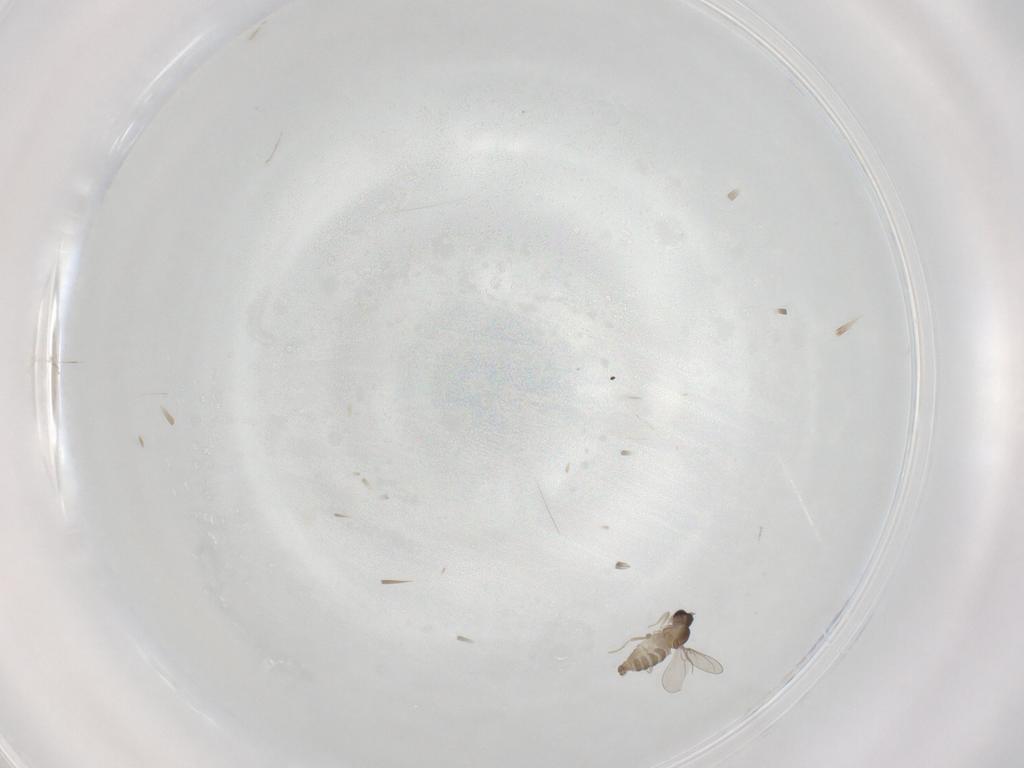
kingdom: Animalia
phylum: Arthropoda
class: Insecta
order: Diptera
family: Cecidomyiidae
